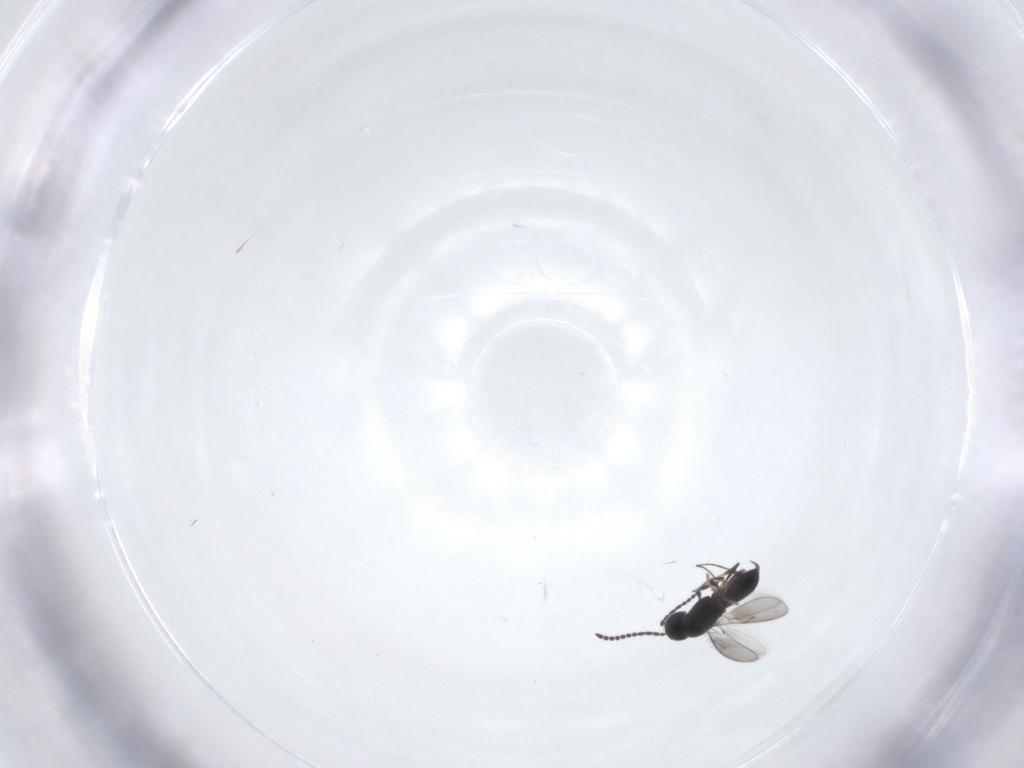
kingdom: Animalia
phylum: Arthropoda
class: Insecta
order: Hymenoptera
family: Scelionidae
